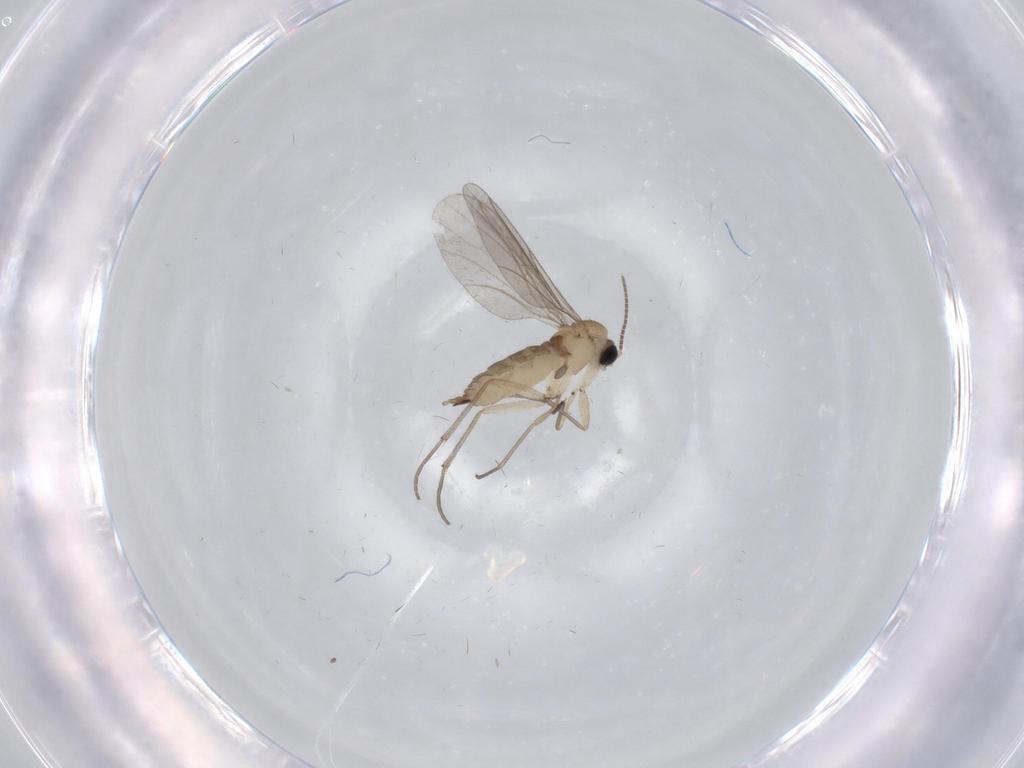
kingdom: Animalia
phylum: Arthropoda
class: Insecta
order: Diptera
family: Sciaridae
